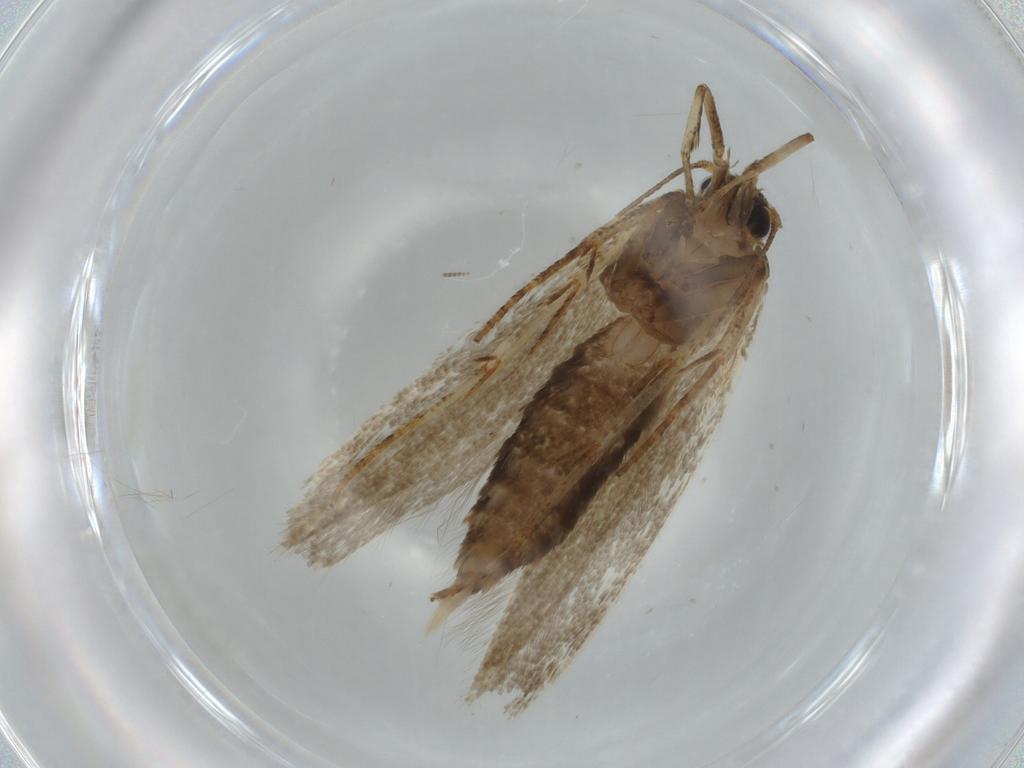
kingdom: Animalia
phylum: Arthropoda
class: Insecta
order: Lepidoptera
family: Blastobasidae
